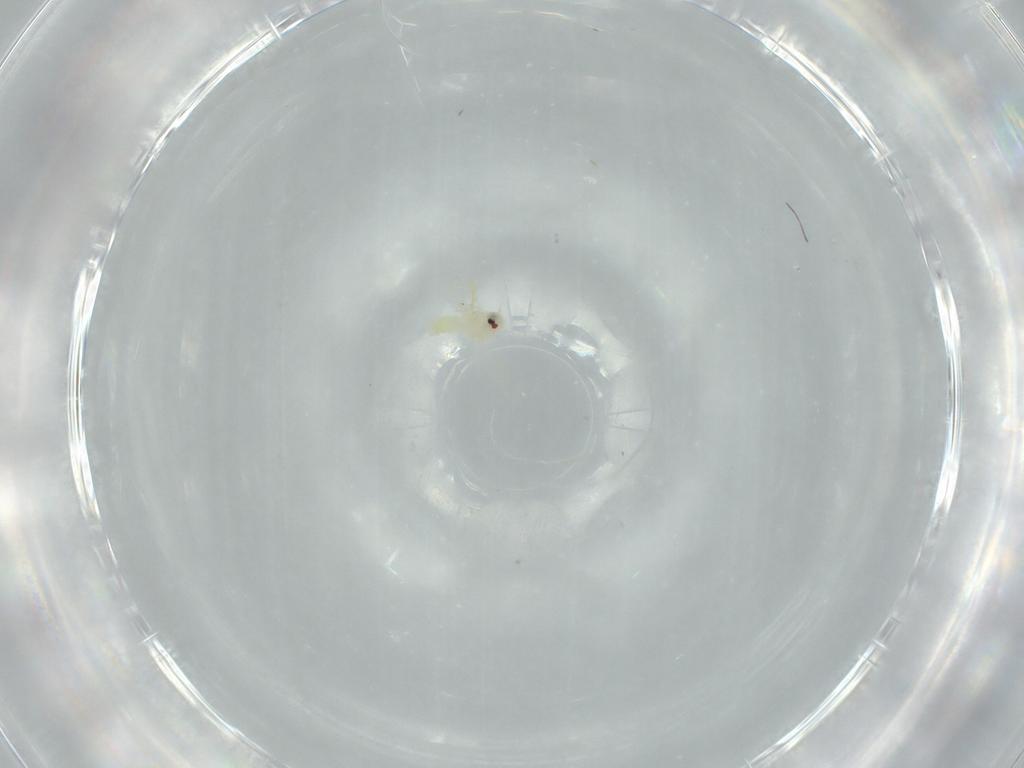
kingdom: Animalia
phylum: Arthropoda
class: Insecta
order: Hemiptera
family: Aleyrodidae
